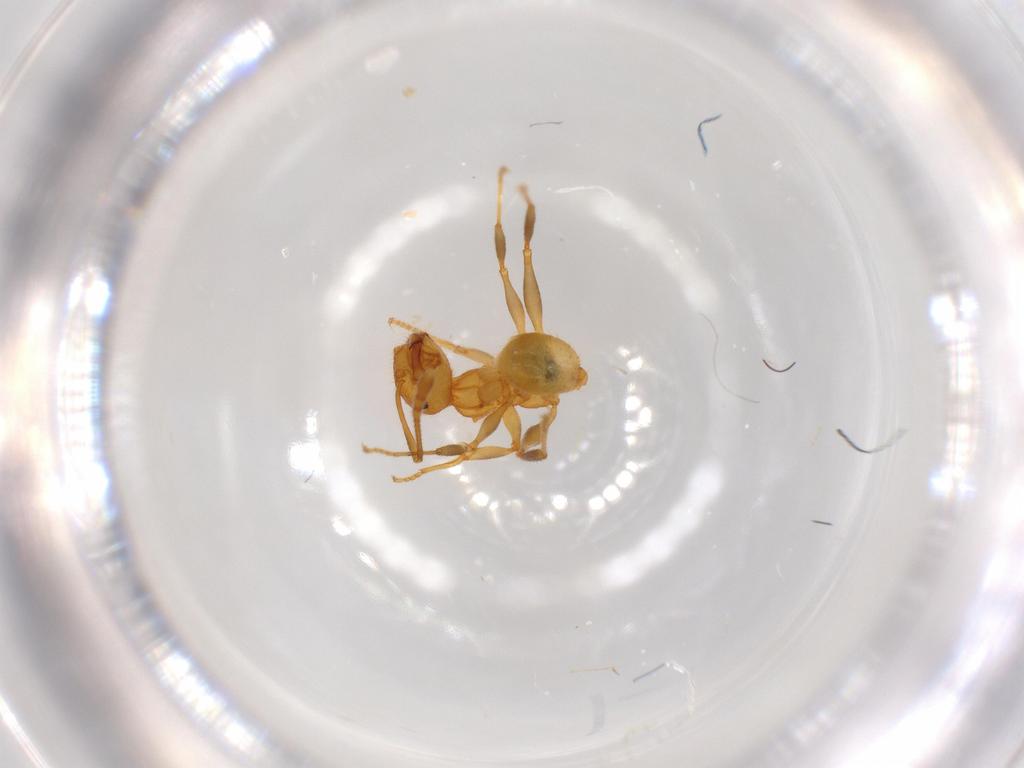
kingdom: Animalia
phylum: Arthropoda
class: Insecta
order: Hymenoptera
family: Formicidae
